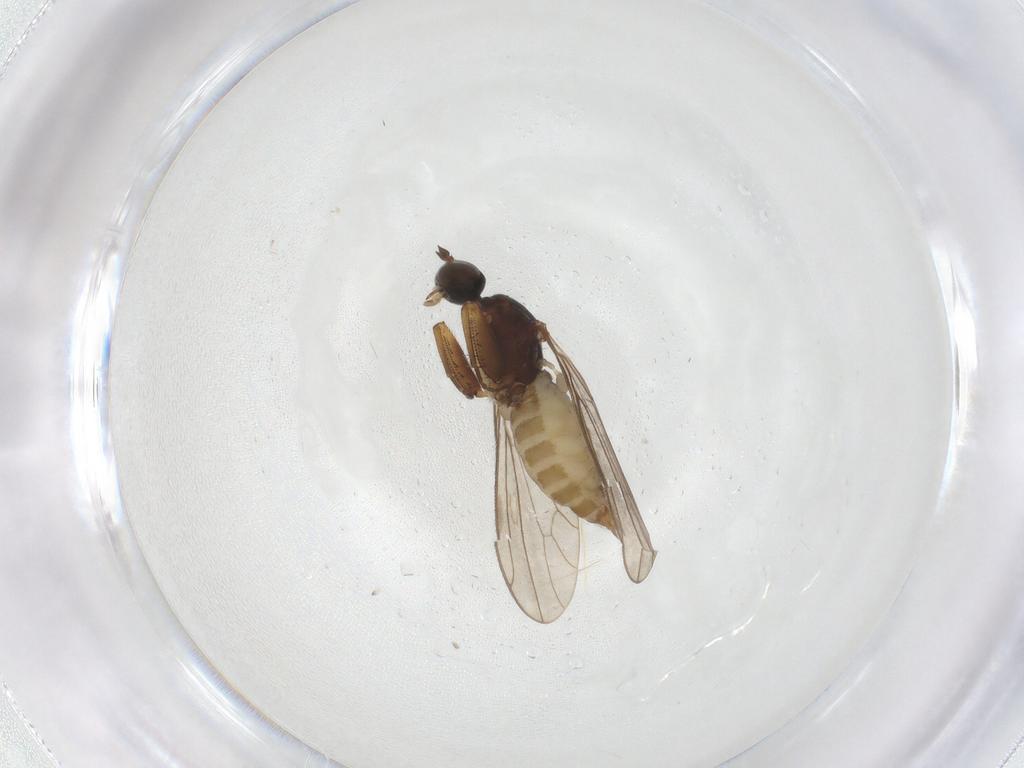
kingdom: Animalia
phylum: Arthropoda
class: Insecta
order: Diptera
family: Empididae
